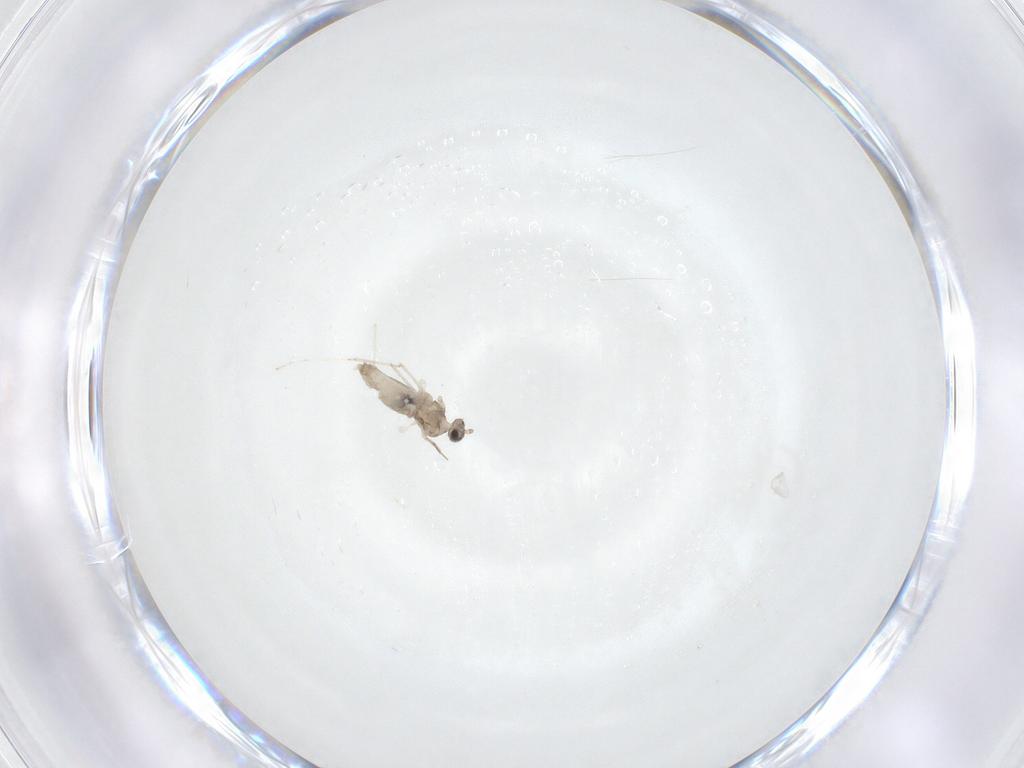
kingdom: Animalia
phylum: Arthropoda
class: Insecta
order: Diptera
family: Cecidomyiidae
